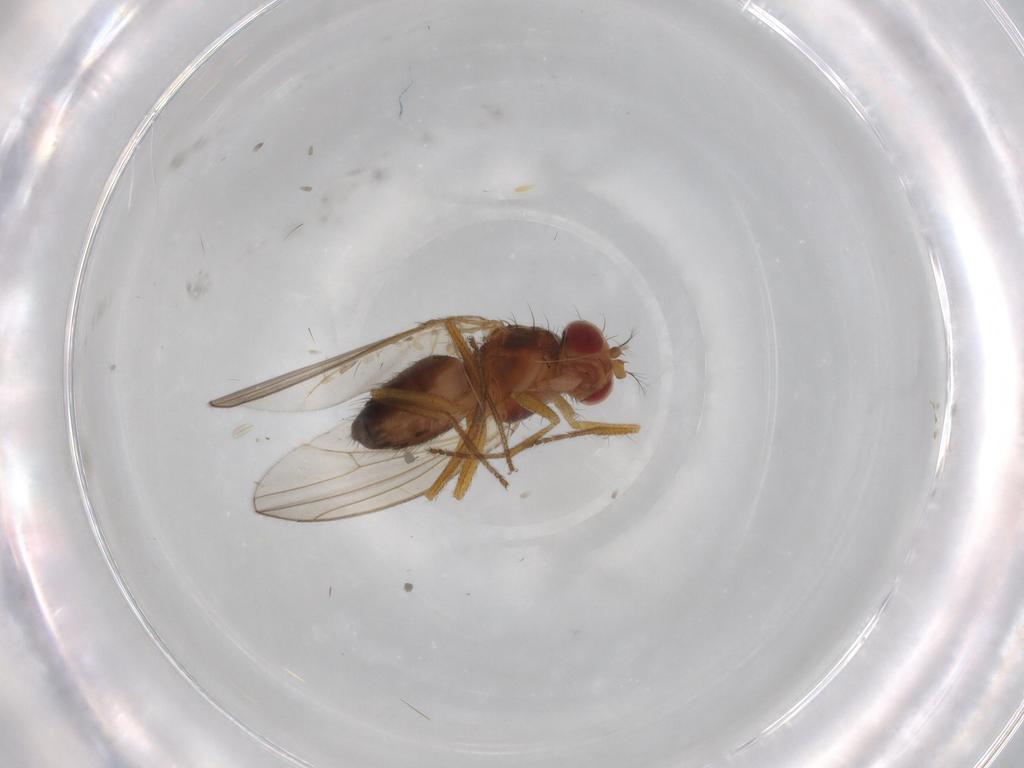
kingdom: Animalia
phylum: Arthropoda
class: Insecta
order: Diptera
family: Drosophilidae
